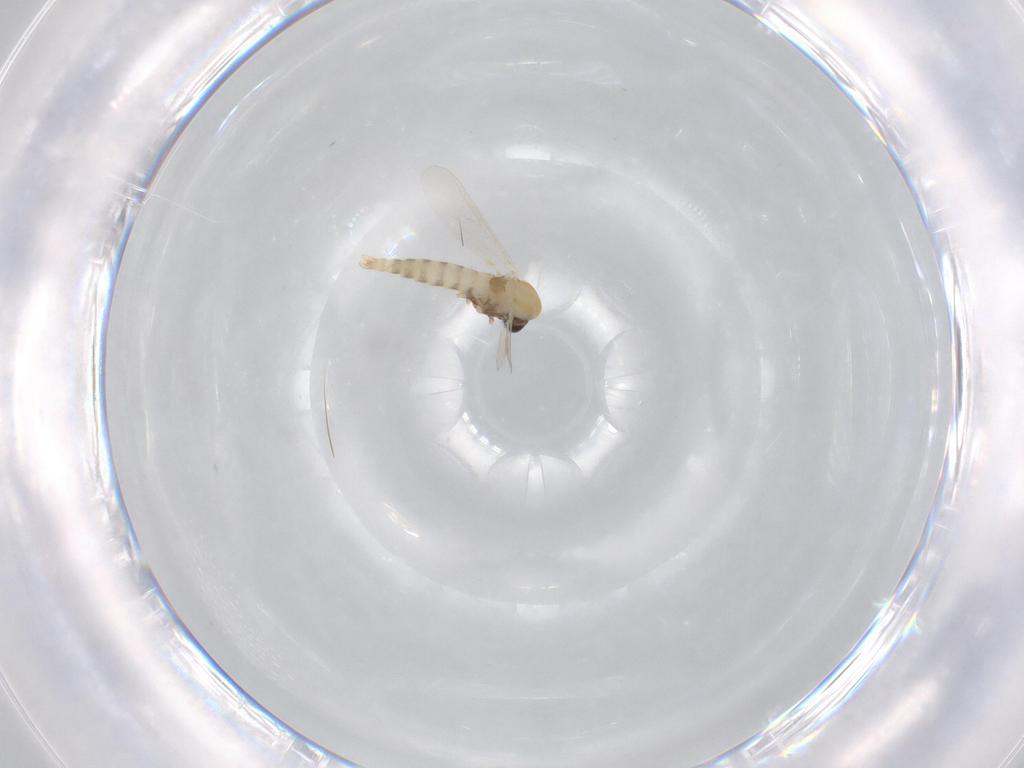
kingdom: Animalia
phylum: Arthropoda
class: Insecta
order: Diptera
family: Chironomidae
